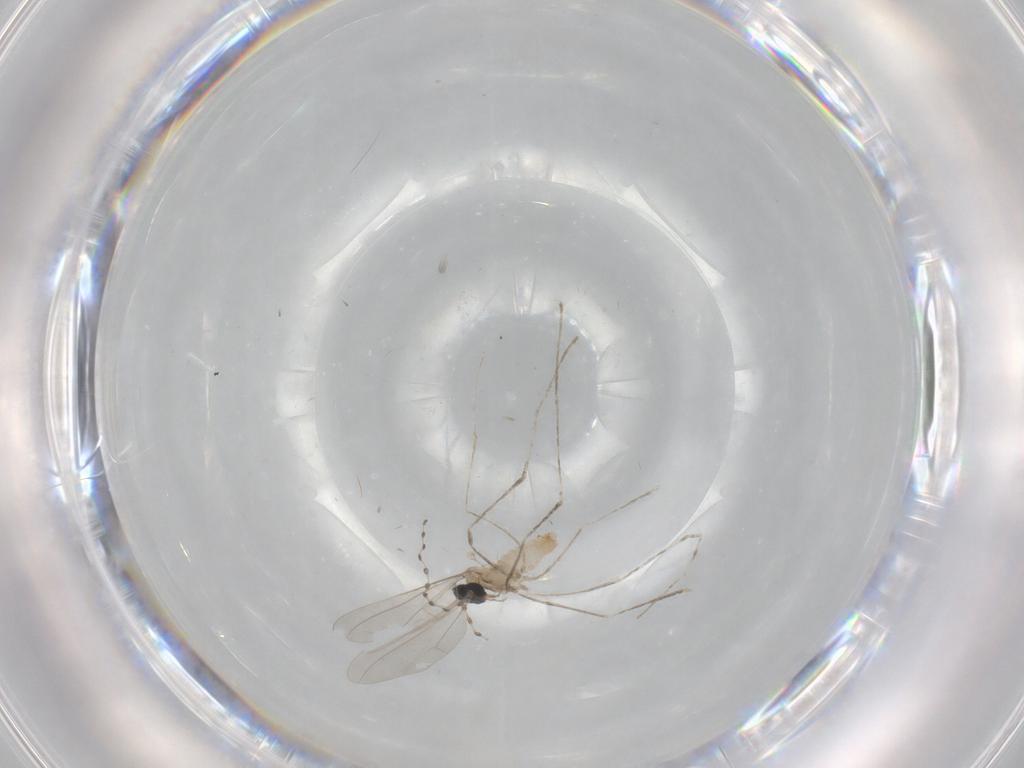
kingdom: Animalia
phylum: Arthropoda
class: Insecta
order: Diptera
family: Cecidomyiidae
